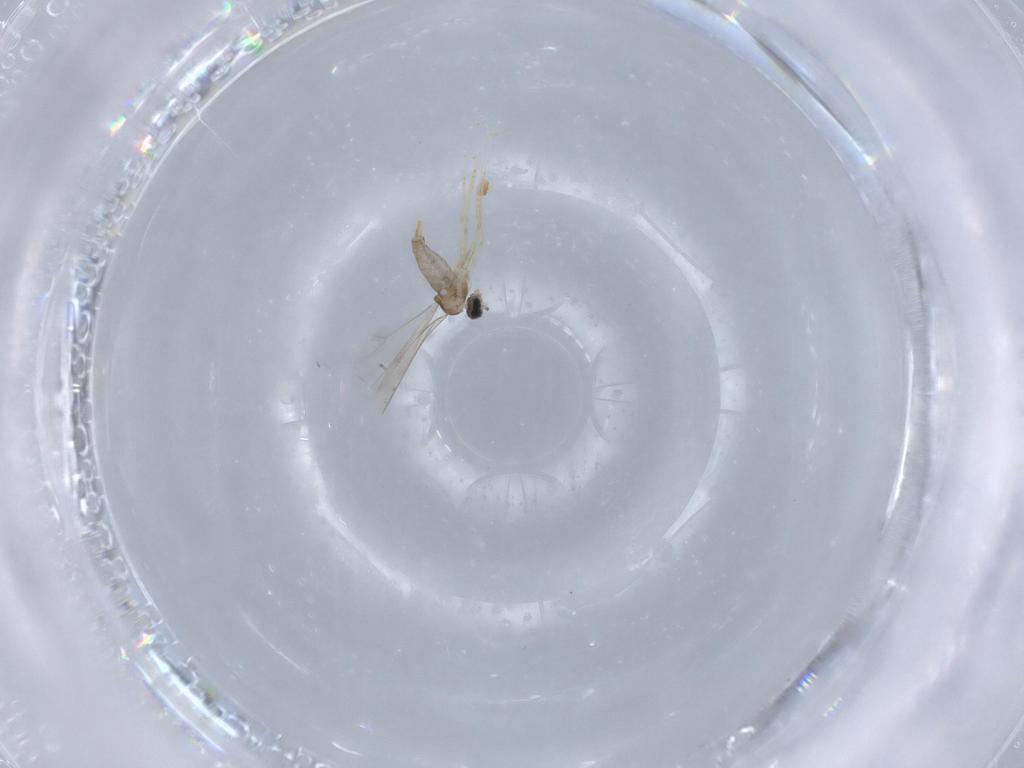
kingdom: Animalia
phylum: Arthropoda
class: Insecta
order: Diptera
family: Cecidomyiidae
